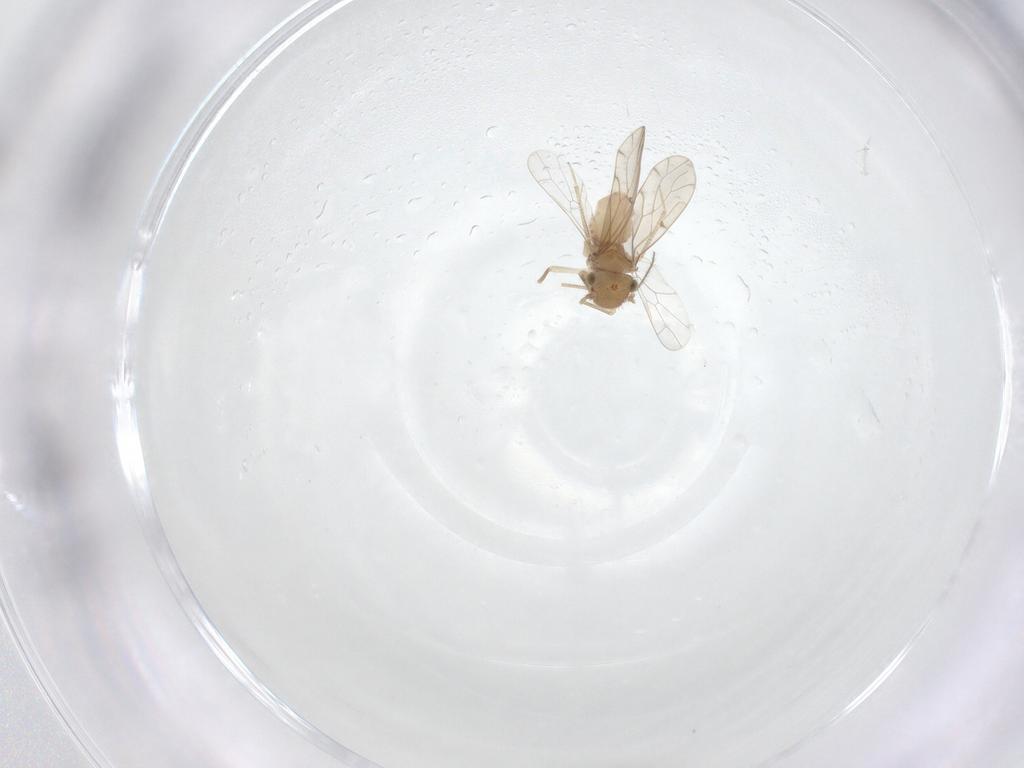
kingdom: Animalia
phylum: Arthropoda
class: Insecta
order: Psocodea
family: Ectopsocidae
